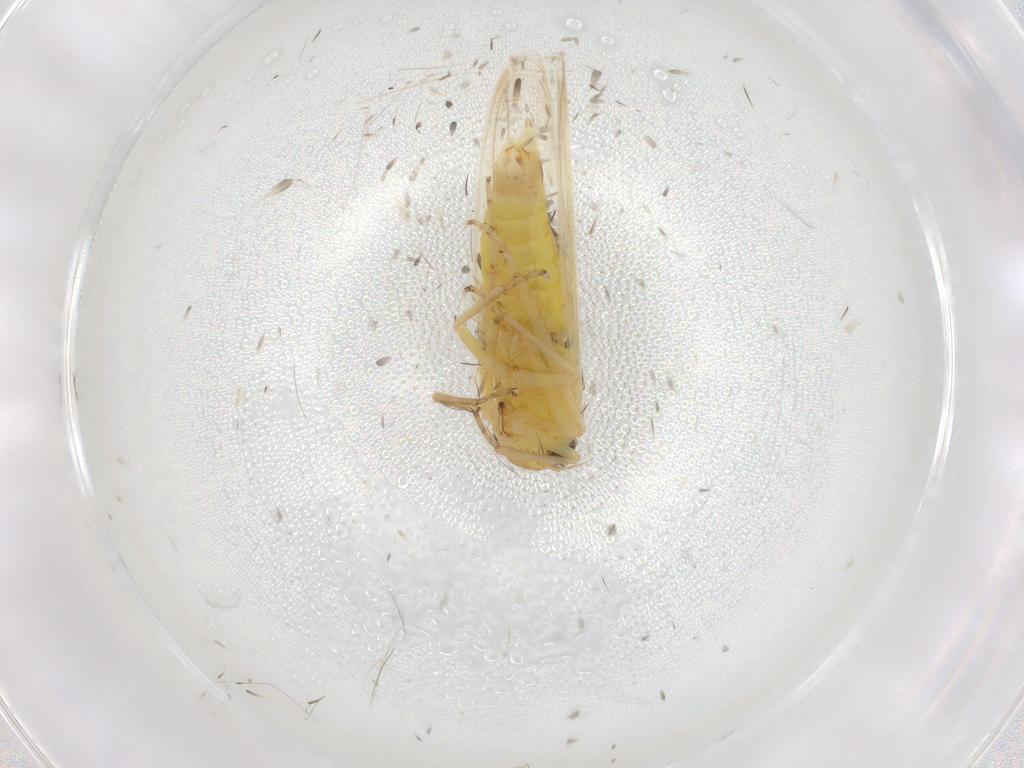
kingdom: Animalia
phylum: Arthropoda
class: Insecta
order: Hemiptera
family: Cicadellidae
